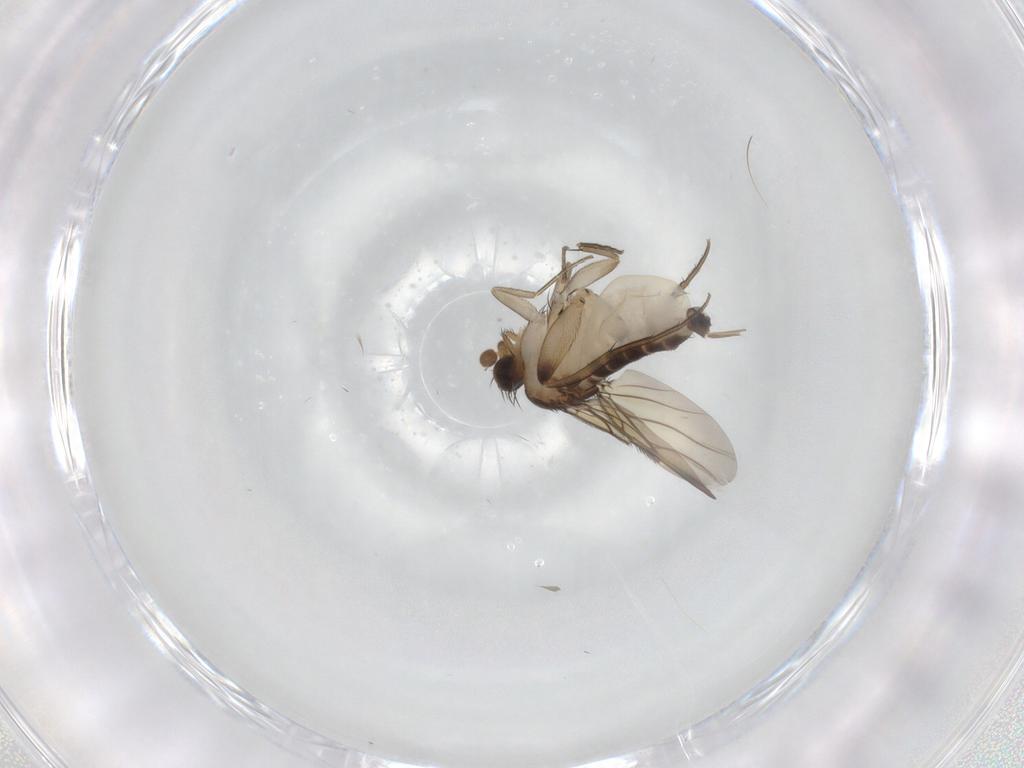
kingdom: Animalia
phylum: Arthropoda
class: Insecta
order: Diptera
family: Phoridae
